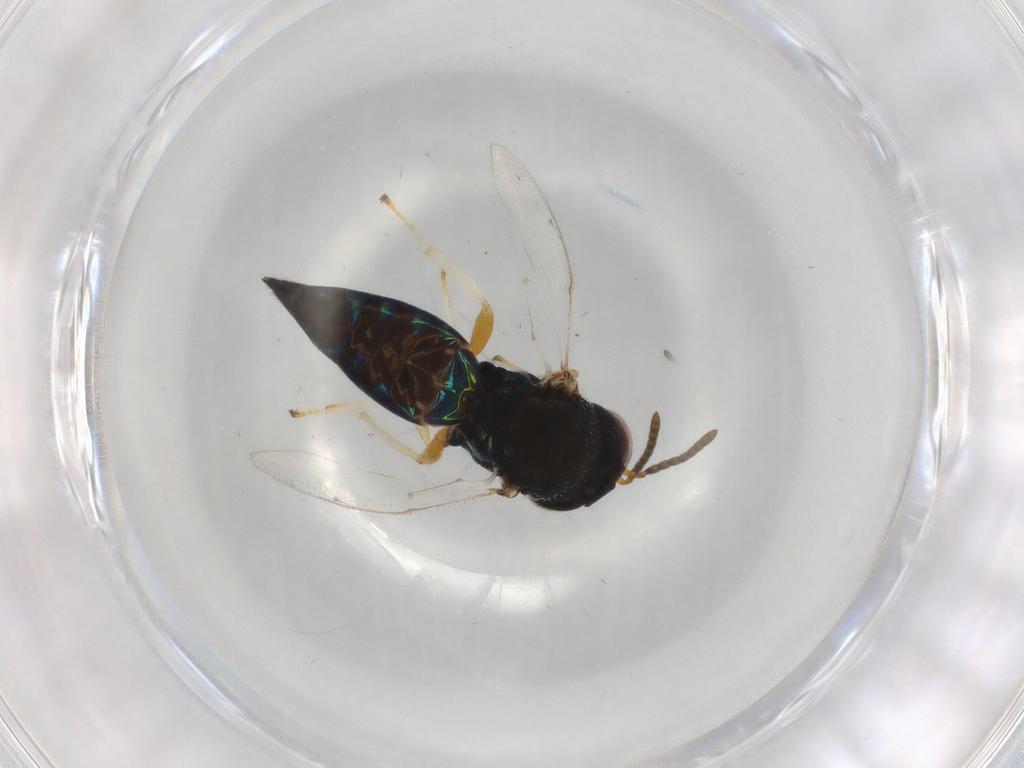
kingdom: Animalia
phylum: Arthropoda
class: Insecta
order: Hymenoptera
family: Pteromalidae
